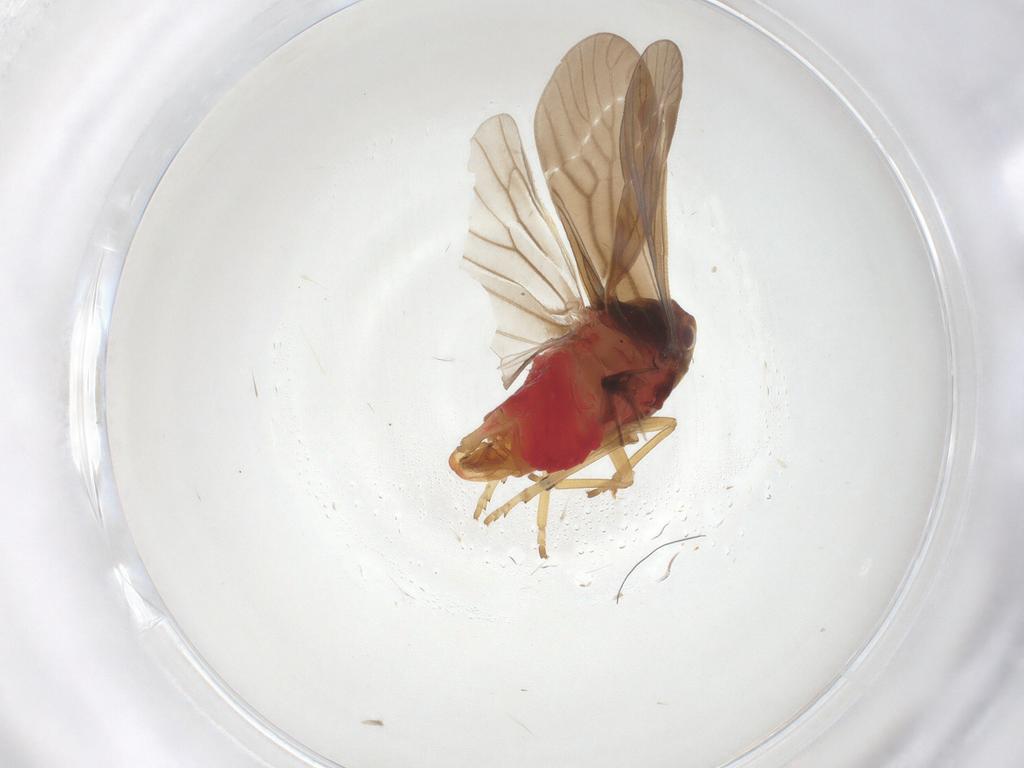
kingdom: Animalia
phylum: Arthropoda
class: Insecta
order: Hemiptera
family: Derbidae
